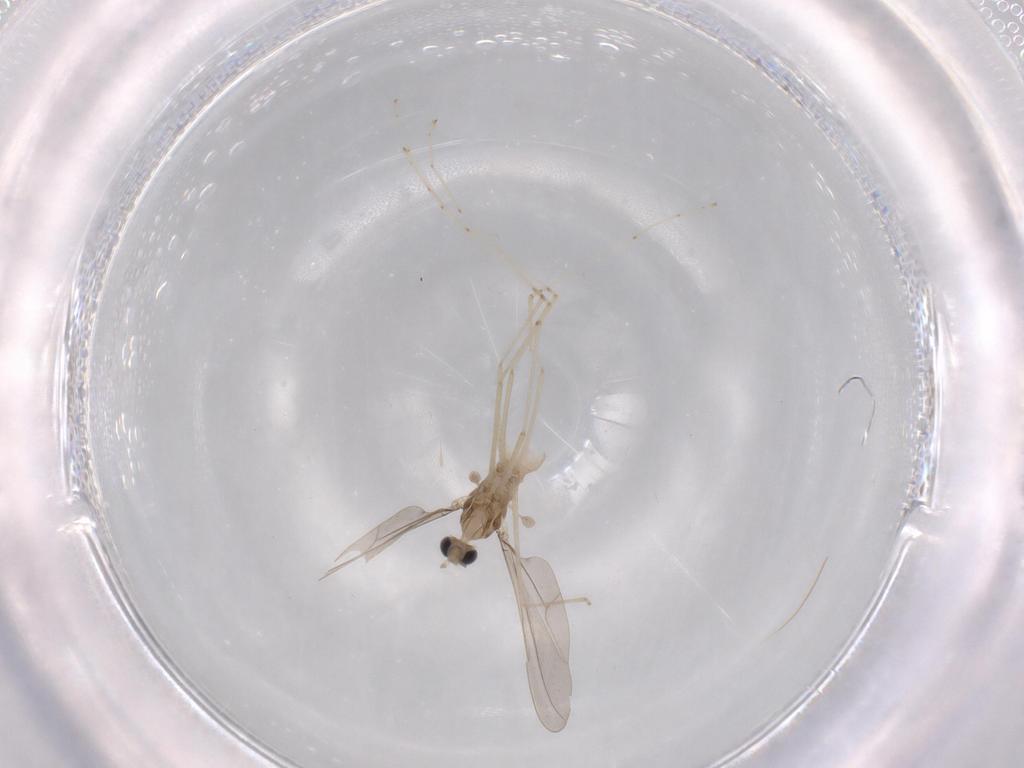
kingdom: Animalia
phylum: Arthropoda
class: Insecta
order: Diptera
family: Cecidomyiidae
